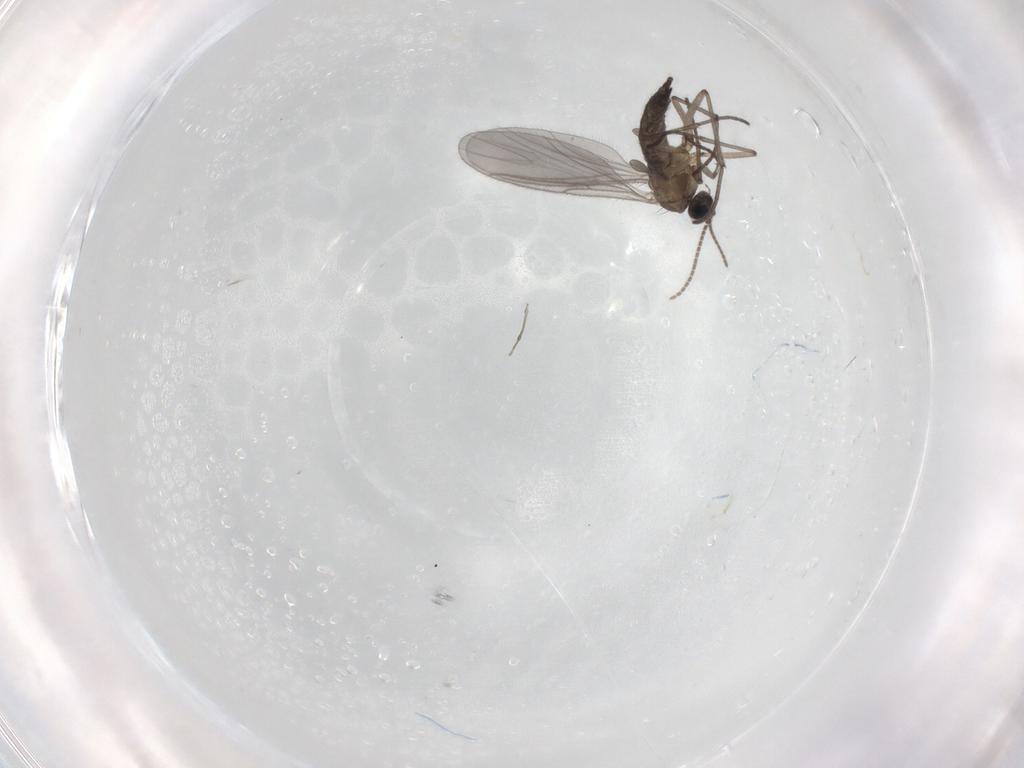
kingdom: Animalia
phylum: Arthropoda
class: Insecta
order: Diptera
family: Sciaridae
